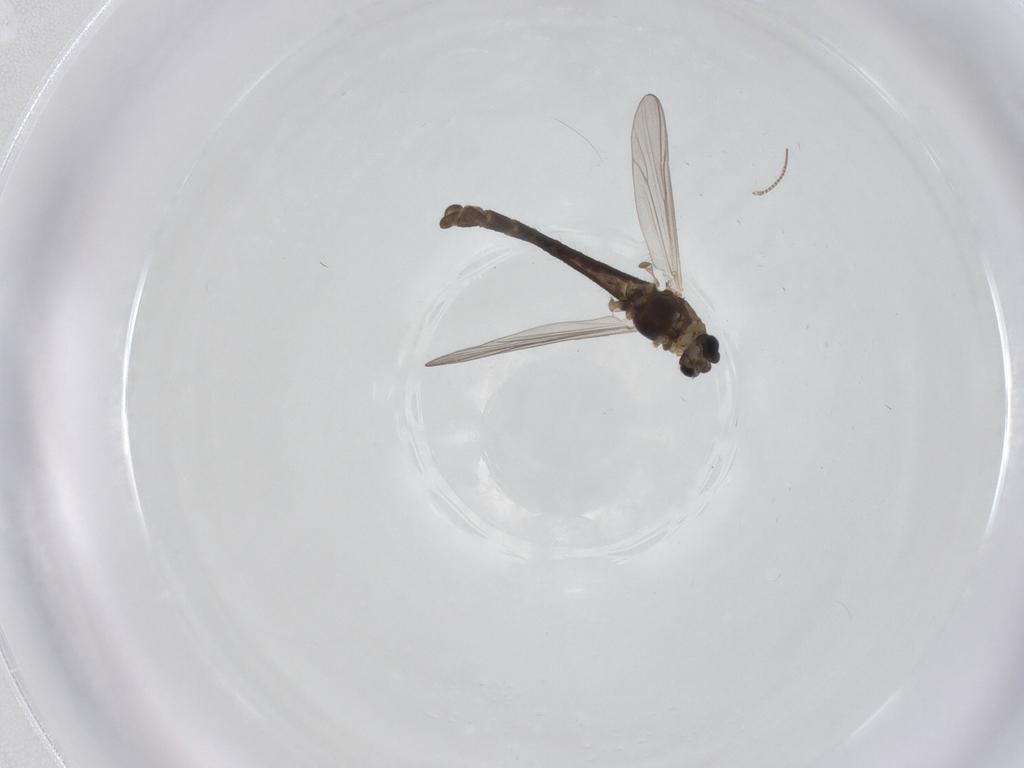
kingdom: Animalia
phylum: Arthropoda
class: Insecta
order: Diptera
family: Chironomidae
